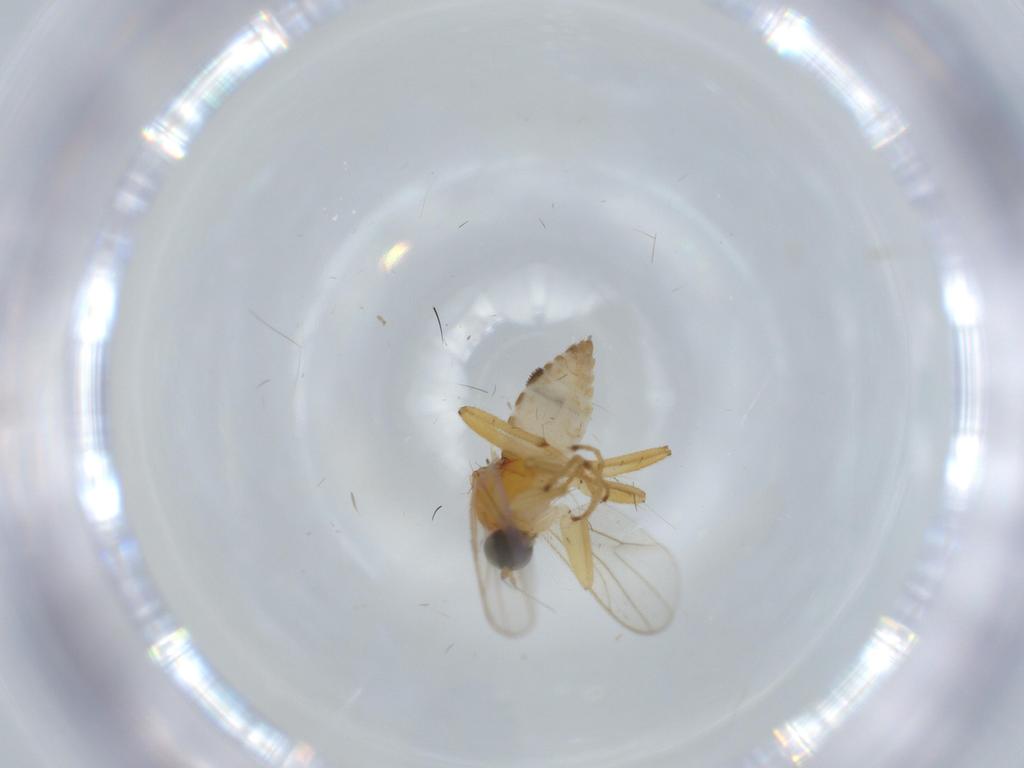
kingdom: Animalia
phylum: Arthropoda
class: Insecta
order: Diptera
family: Hybotidae
